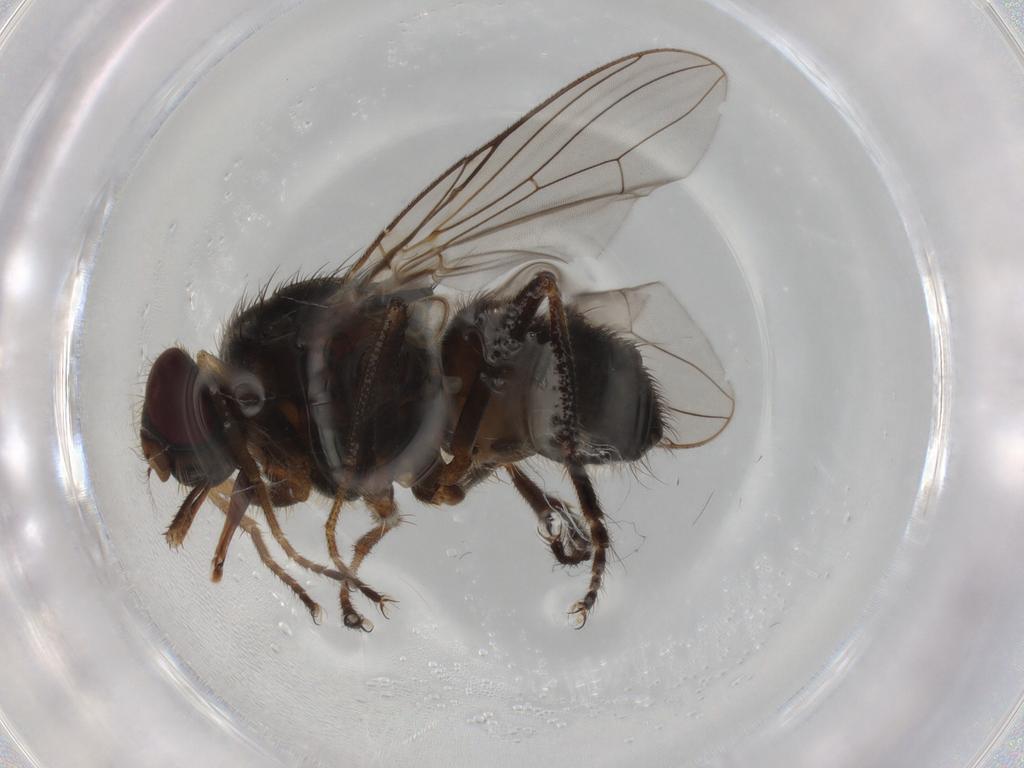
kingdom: Animalia
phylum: Arthropoda
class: Insecta
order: Diptera
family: Muscidae
